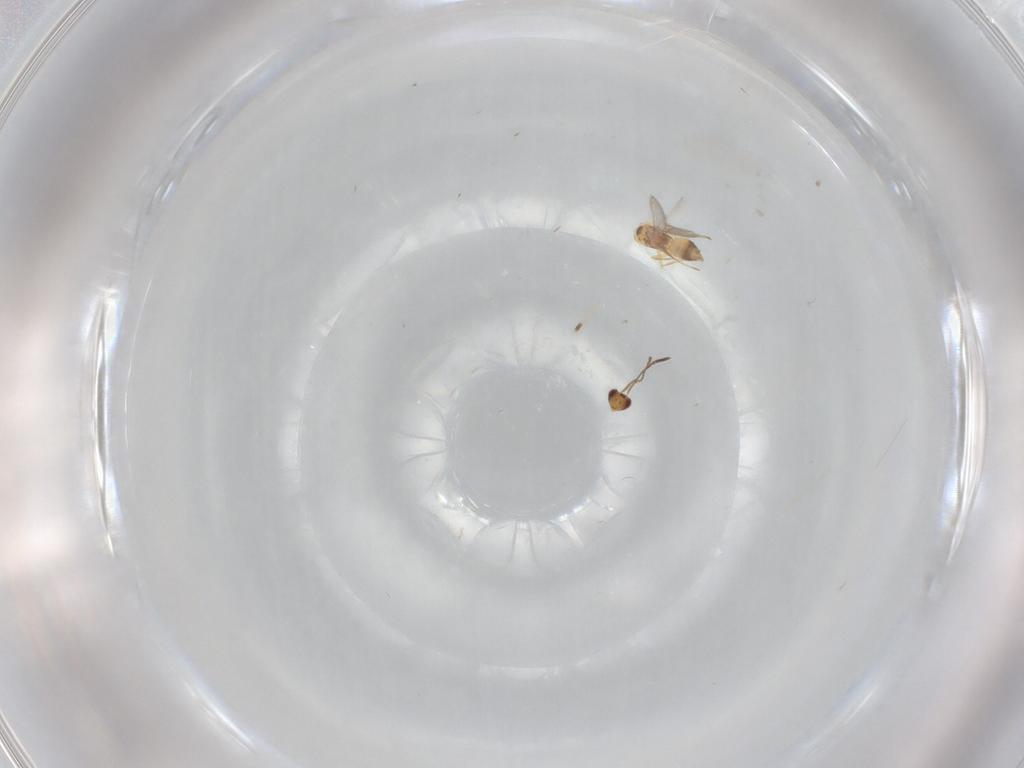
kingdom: Animalia
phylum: Arthropoda
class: Insecta
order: Hymenoptera
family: Mymaridae
